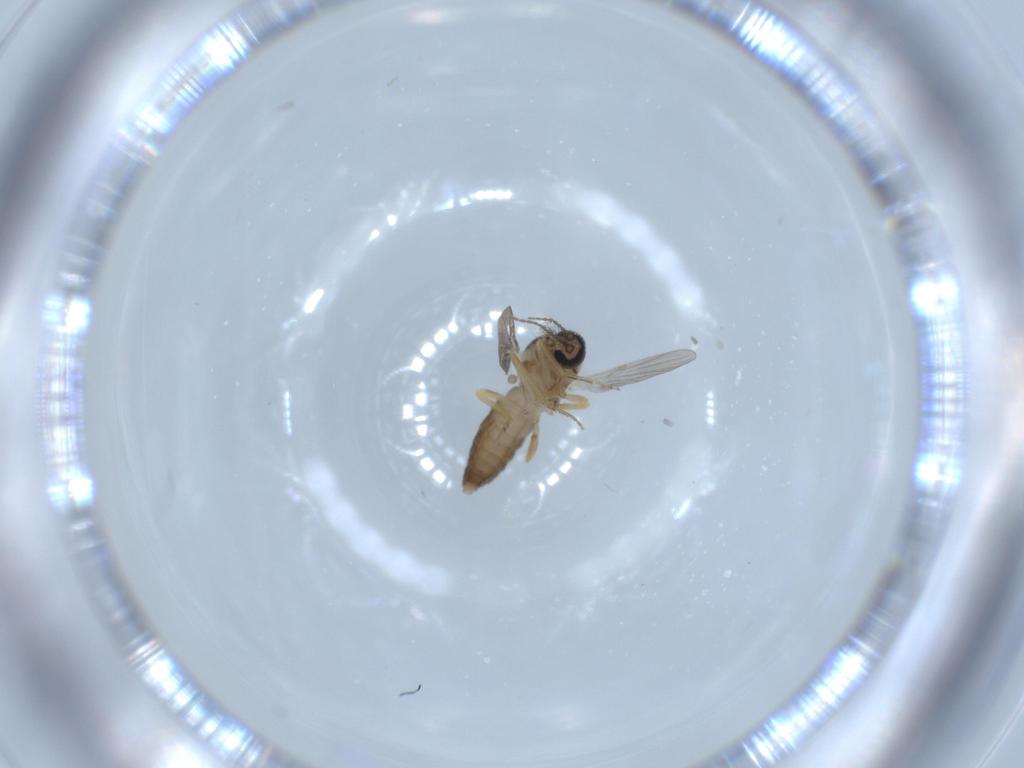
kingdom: Animalia
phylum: Arthropoda
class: Insecta
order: Diptera
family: Ceratopogonidae
